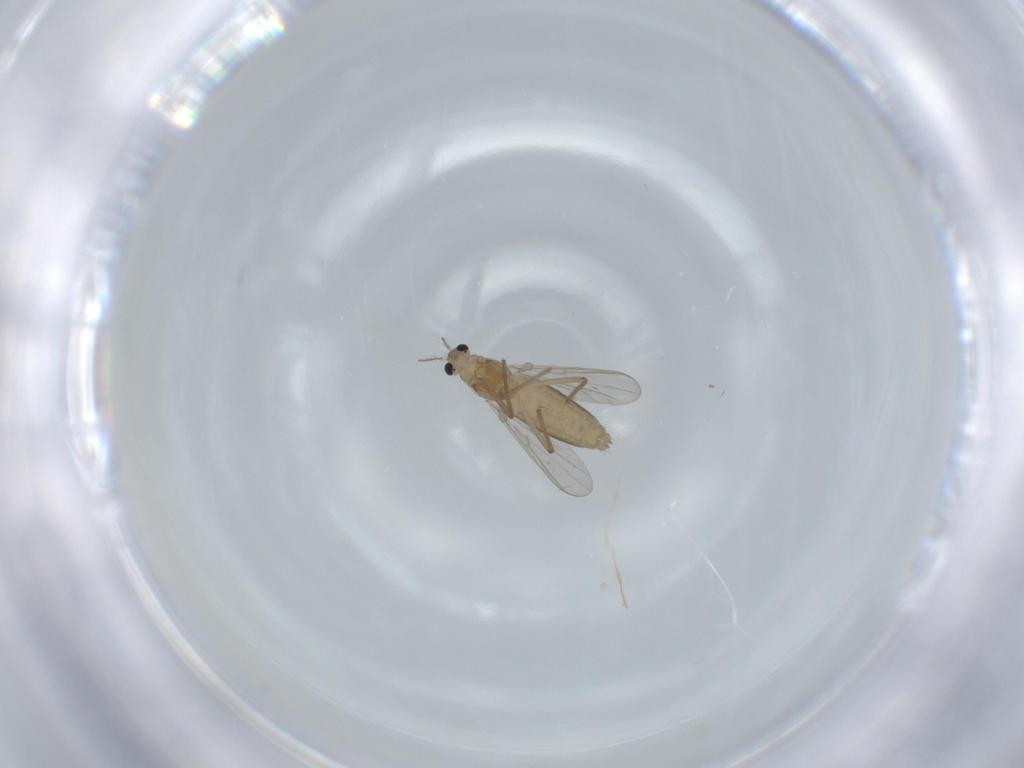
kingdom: Animalia
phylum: Arthropoda
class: Insecta
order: Diptera
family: Chironomidae
